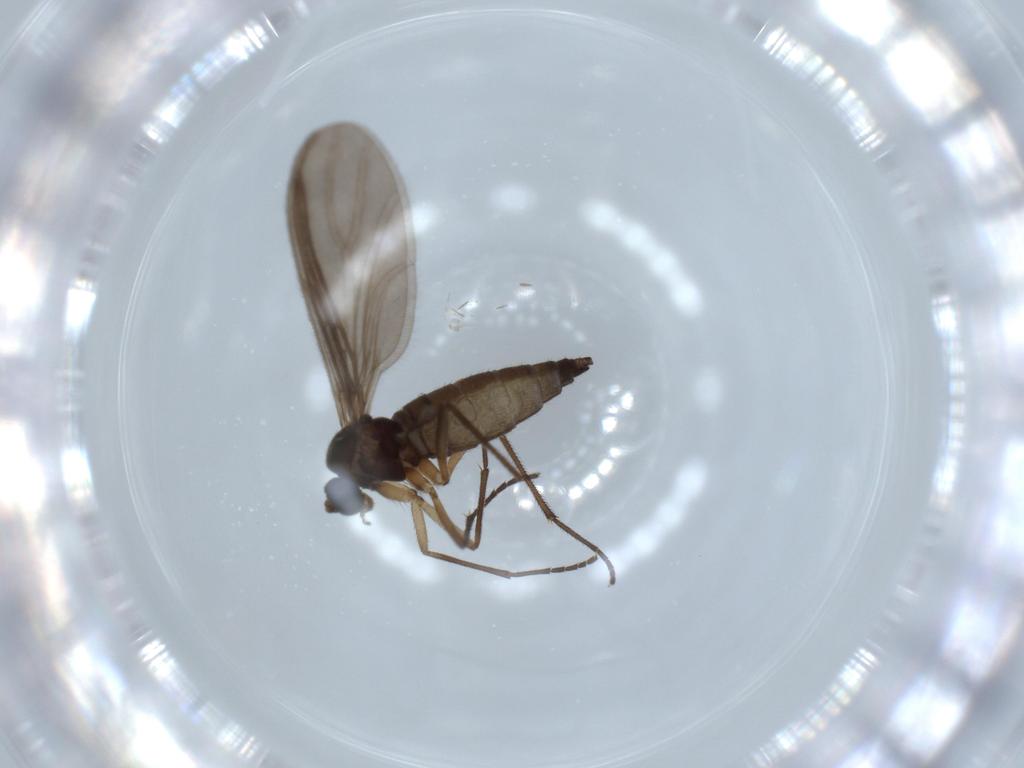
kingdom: Animalia
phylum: Arthropoda
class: Insecta
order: Diptera
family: Sciaridae
